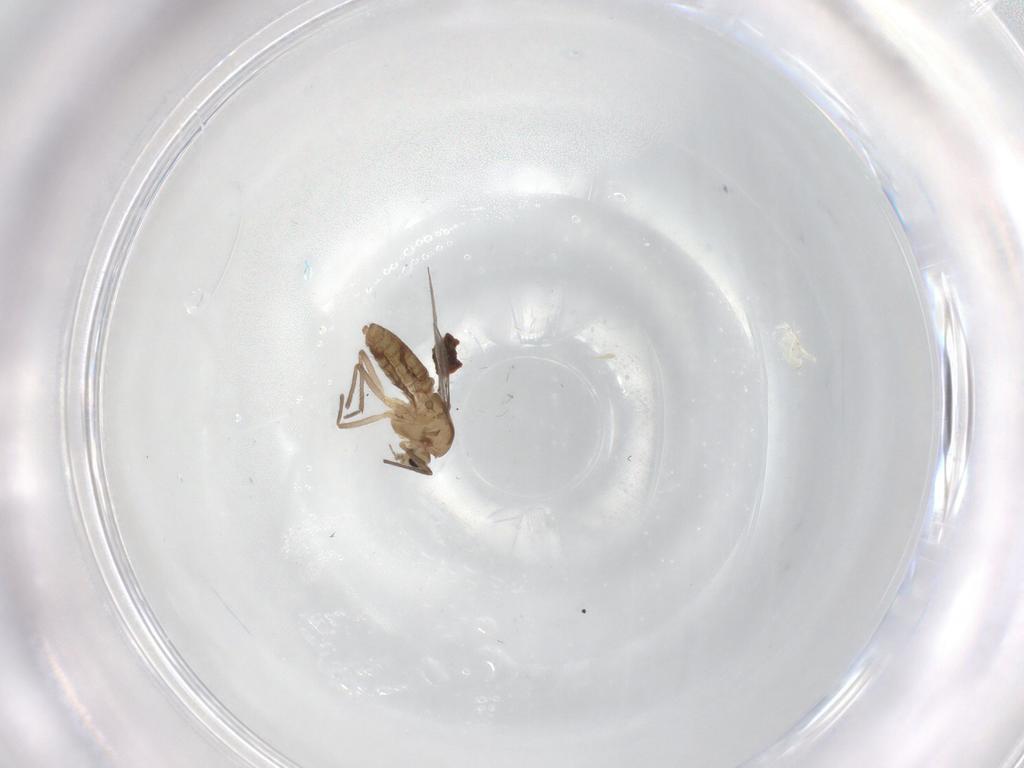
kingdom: Animalia
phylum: Arthropoda
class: Insecta
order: Diptera
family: Chironomidae
